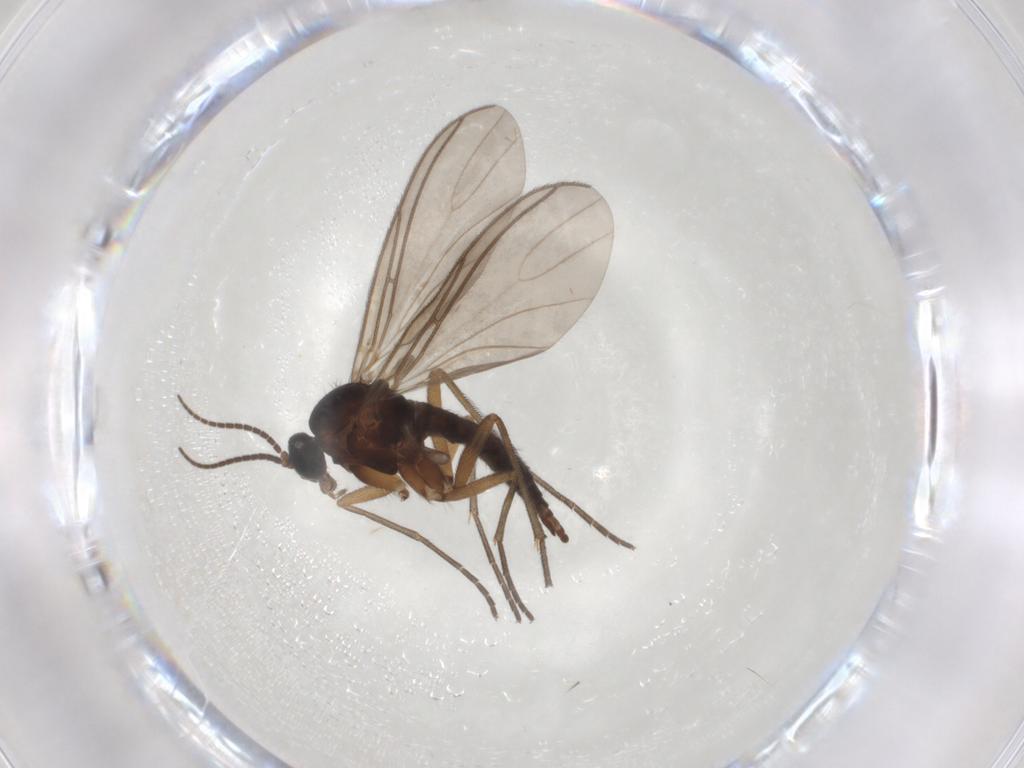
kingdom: Animalia
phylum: Arthropoda
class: Insecta
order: Diptera
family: Sciaridae
